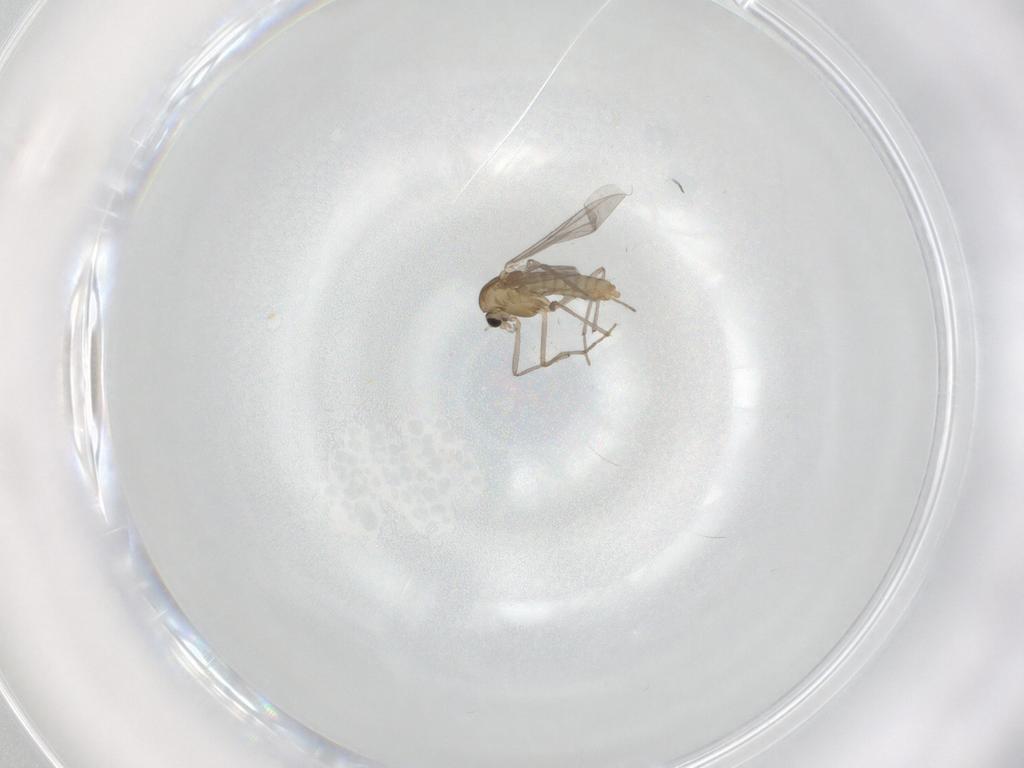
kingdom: Animalia
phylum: Arthropoda
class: Insecta
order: Diptera
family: Chironomidae
